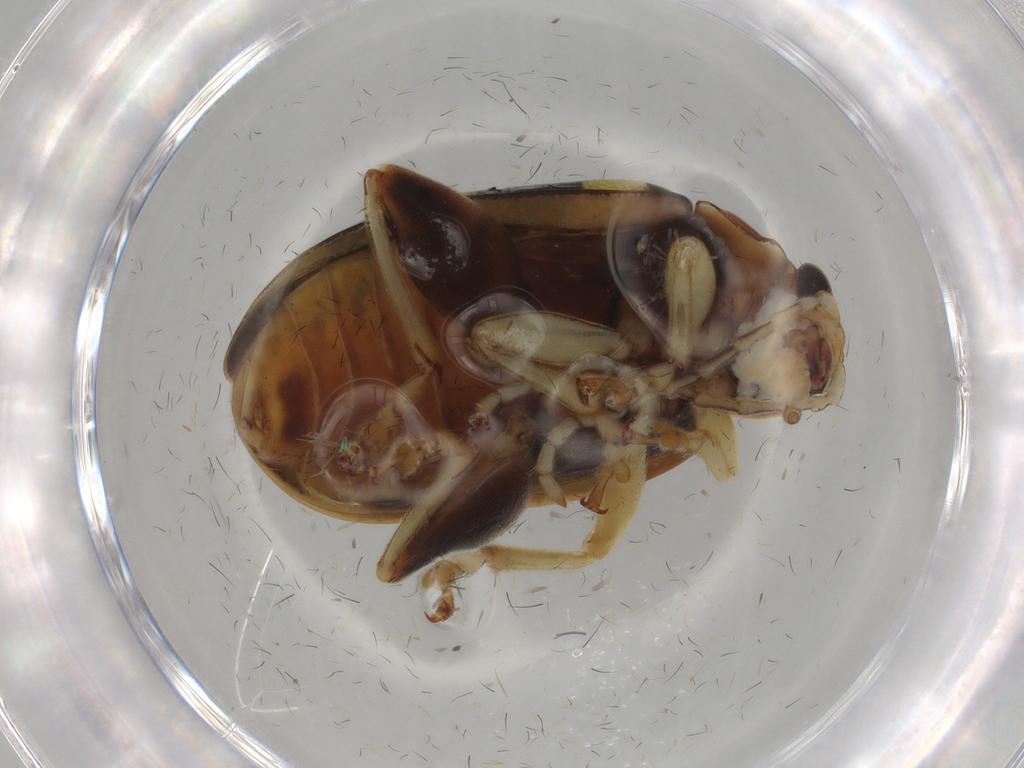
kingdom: Animalia
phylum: Arthropoda
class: Insecta
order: Coleoptera
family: Chrysomelidae
